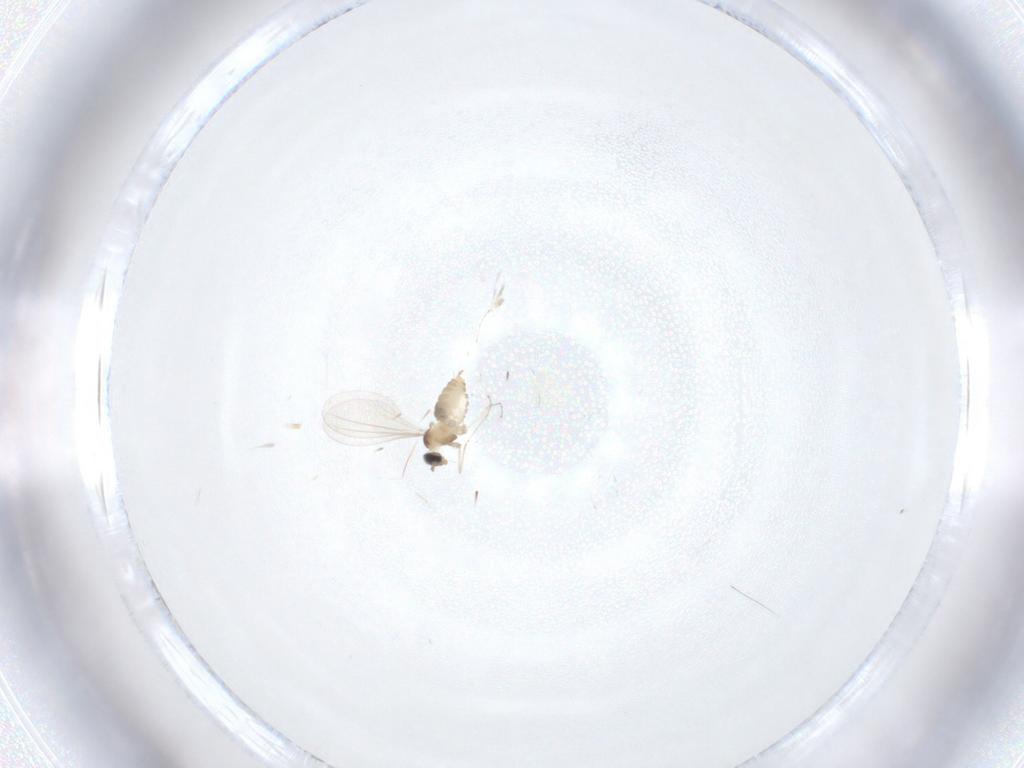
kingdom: Animalia
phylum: Arthropoda
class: Insecta
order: Diptera
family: Cecidomyiidae
